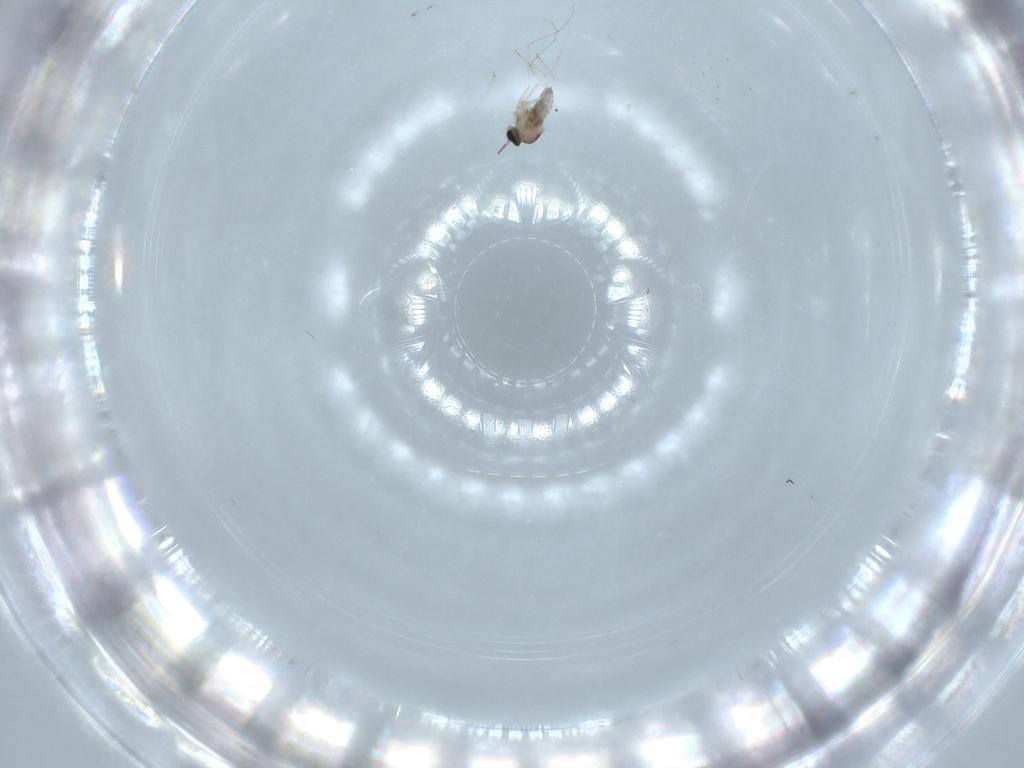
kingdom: Animalia
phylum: Arthropoda
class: Insecta
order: Diptera
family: Cecidomyiidae
